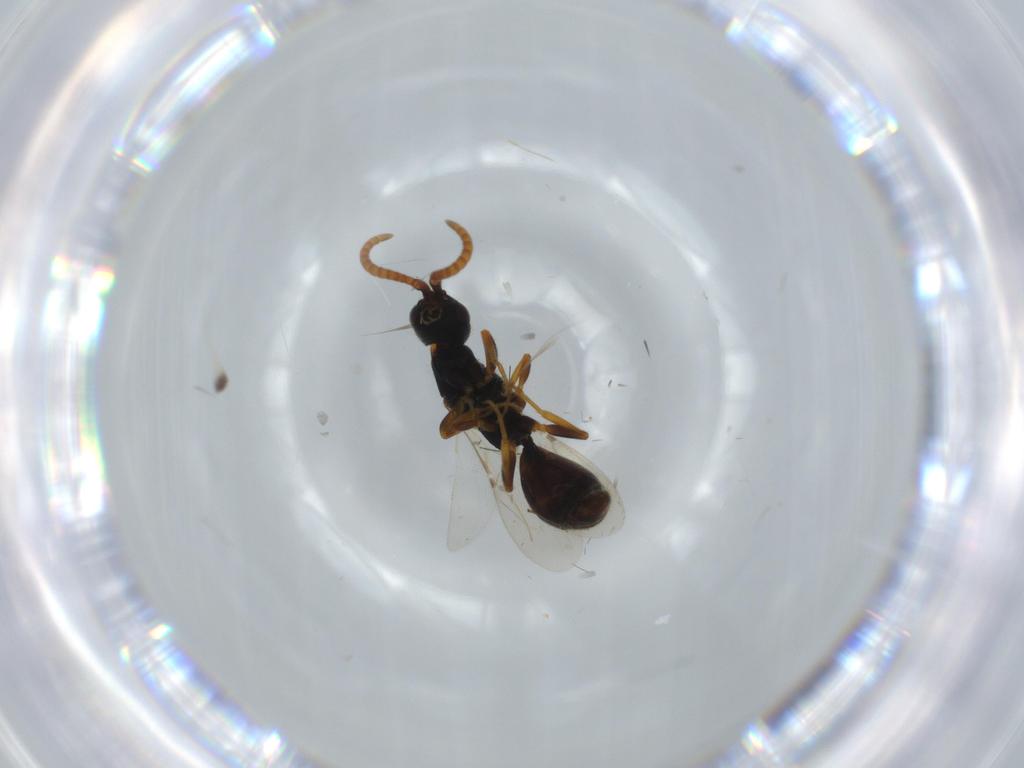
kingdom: Animalia
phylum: Arthropoda
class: Insecta
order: Hymenoptera
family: Bethylidae
